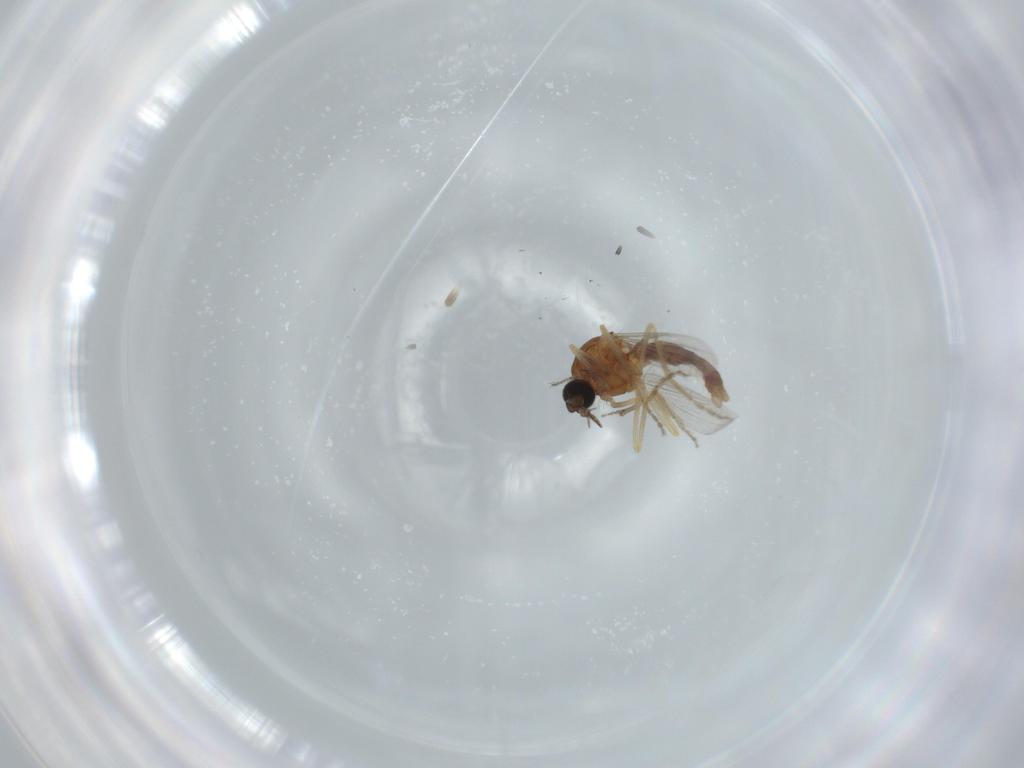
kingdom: Animalia
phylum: Arthropoda
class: Insecta
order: Diptera
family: Ceratopogonidae
